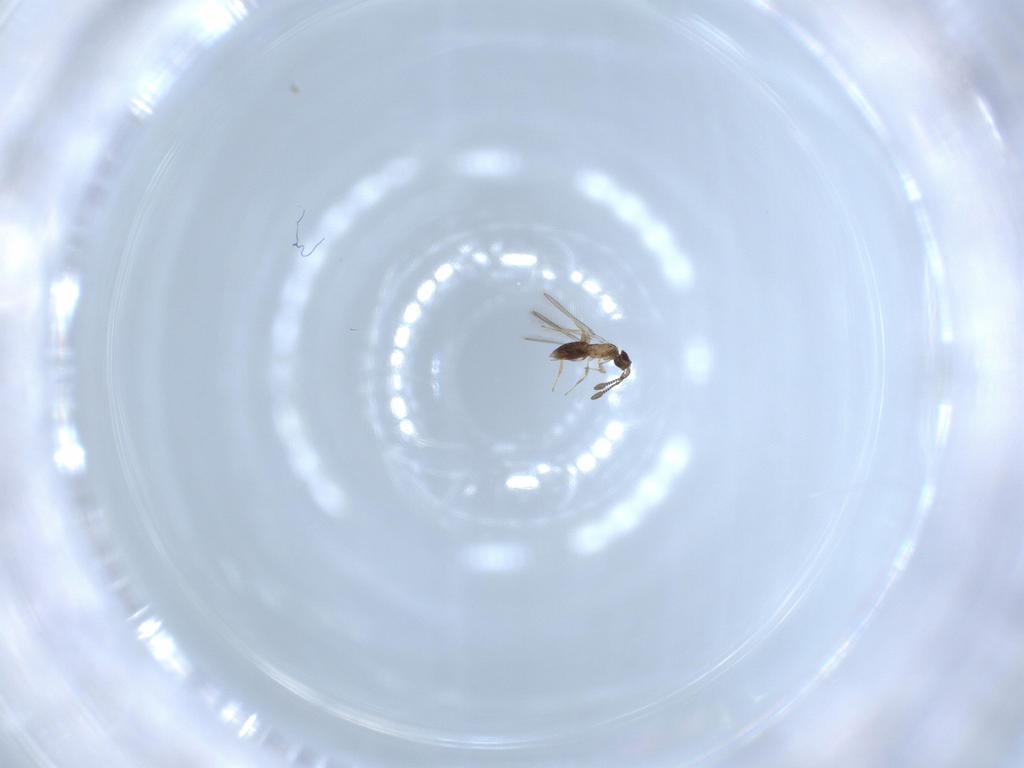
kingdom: Animalia
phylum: Arthropoda
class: Insecta
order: Hymenoptera
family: Mymaridae
